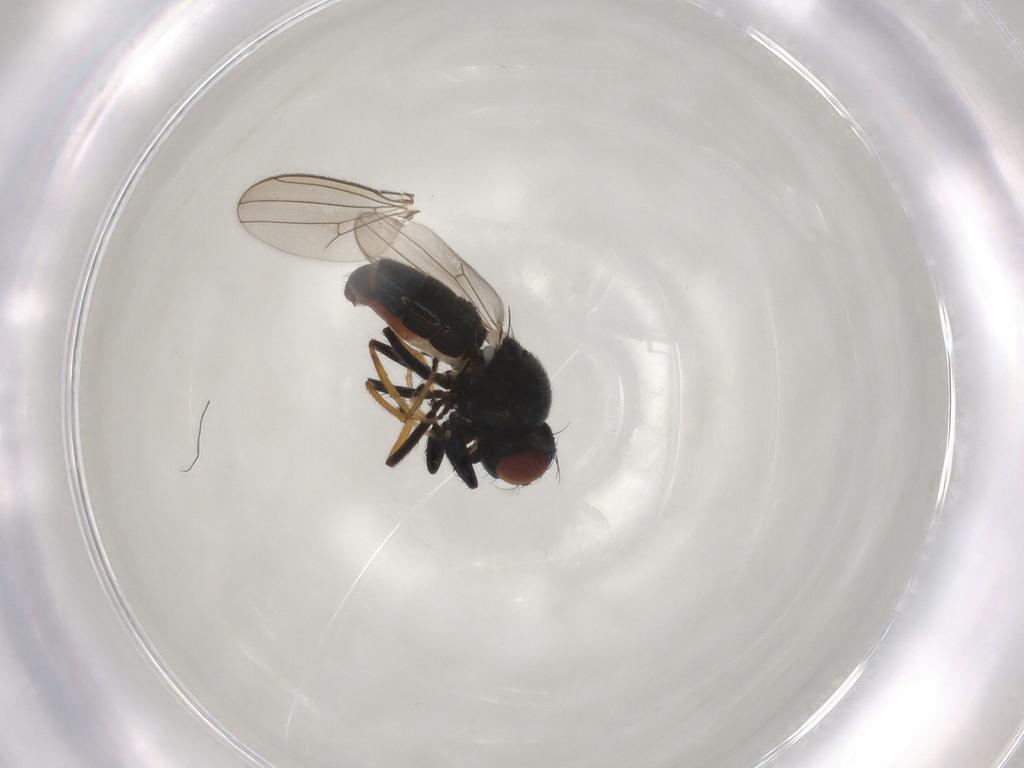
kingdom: Animalia
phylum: Arthropoda
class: Insecta
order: Diptera
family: Ephydridae
